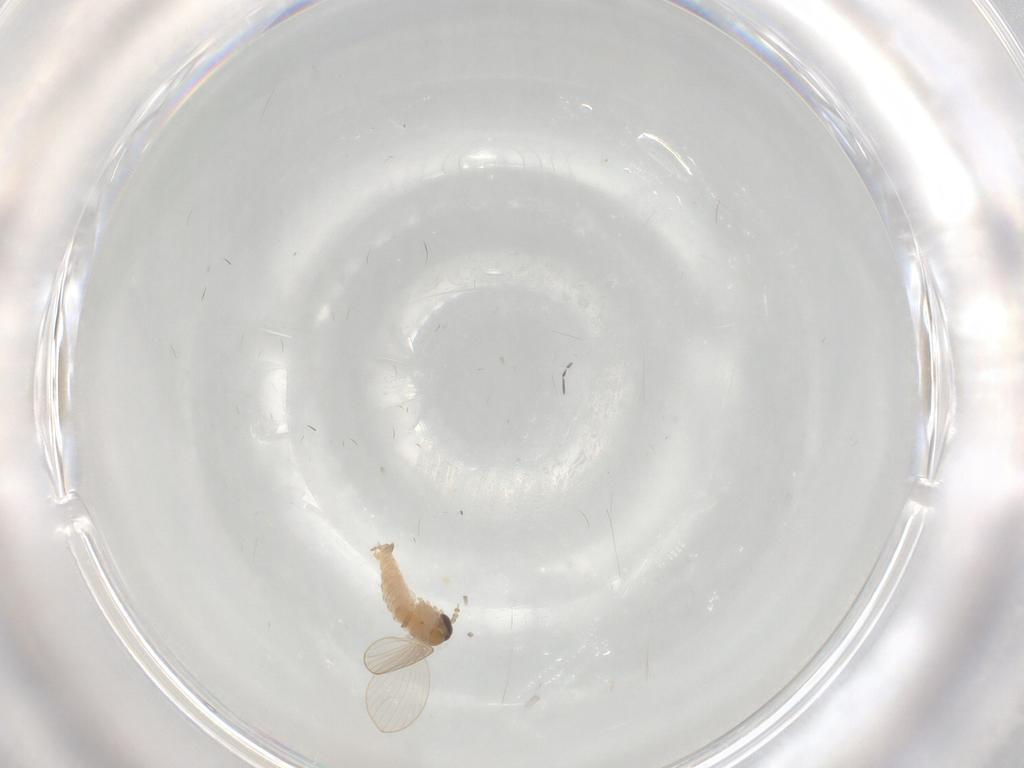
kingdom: Animalia
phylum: Arthropoda
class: Insecta
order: Diptera
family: Psychodidae
